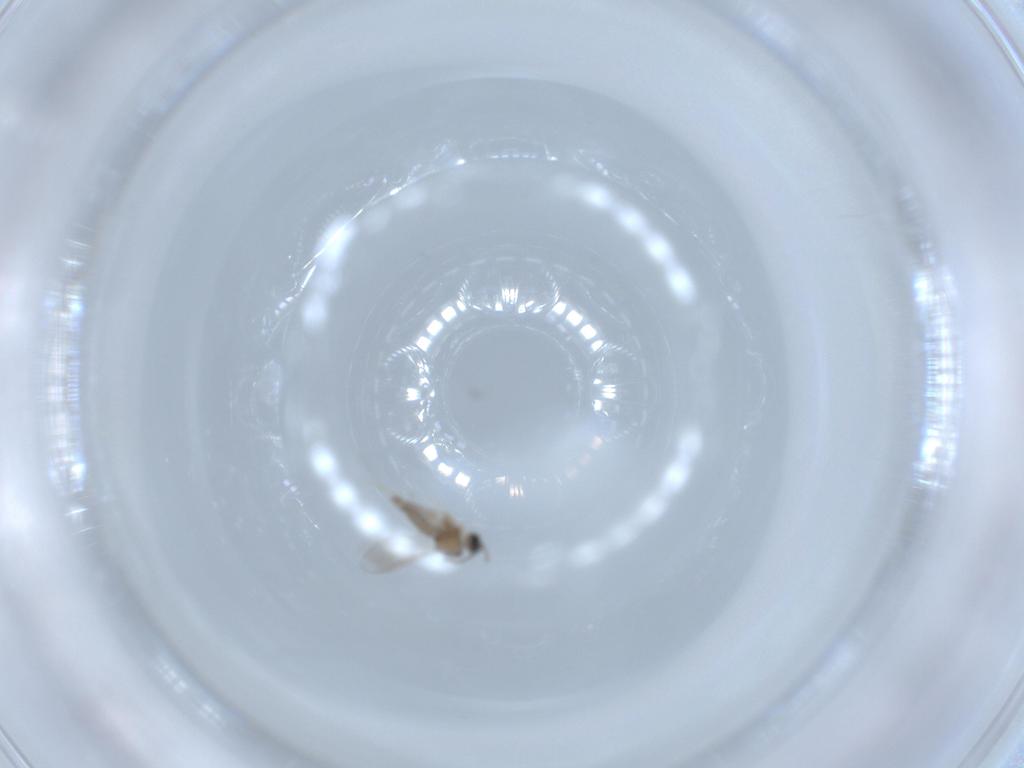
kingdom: Animalia
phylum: Arthropoda
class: Insecta
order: Diptera
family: Cecidomyiidae
